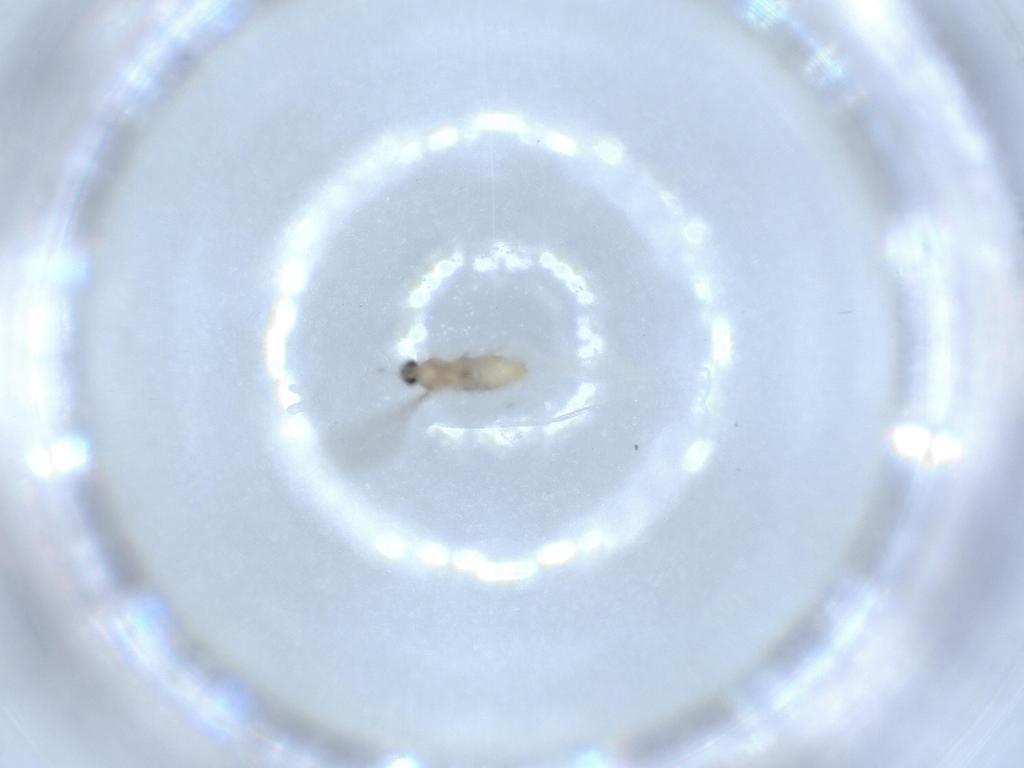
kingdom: Animalia
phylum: Arthropoda
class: Insecta
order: Diptera
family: Cecidomyiidae
